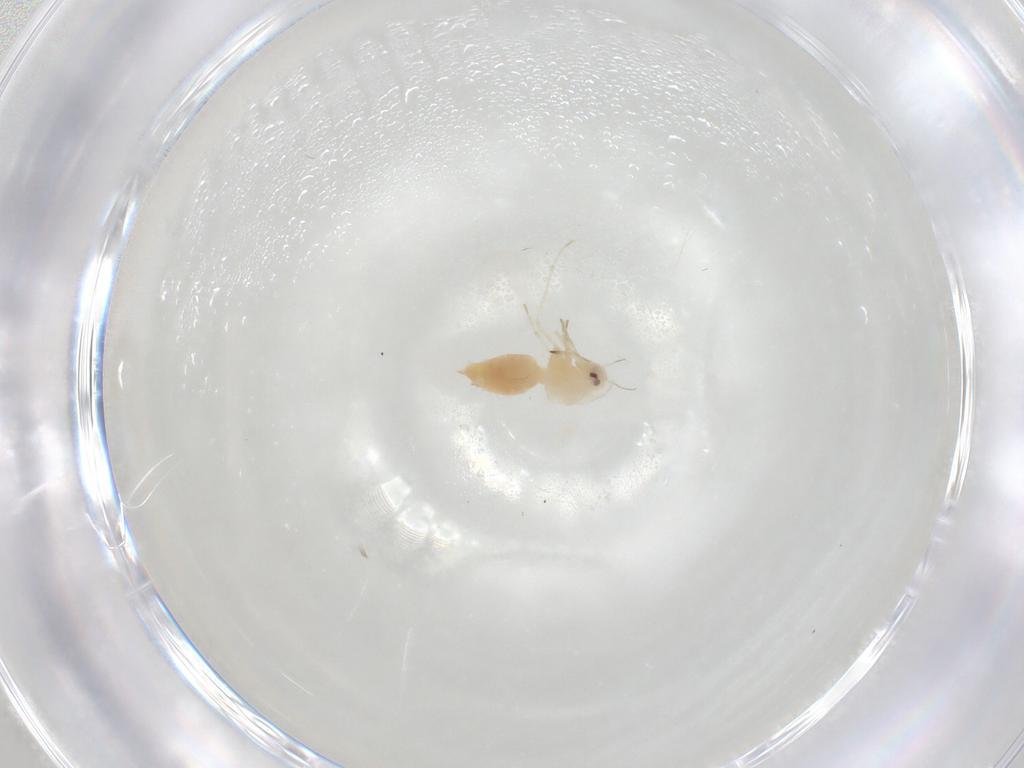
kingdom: Animalia
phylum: Arthropoda
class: Insecta
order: Hemiptera
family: Aleyrodidae
